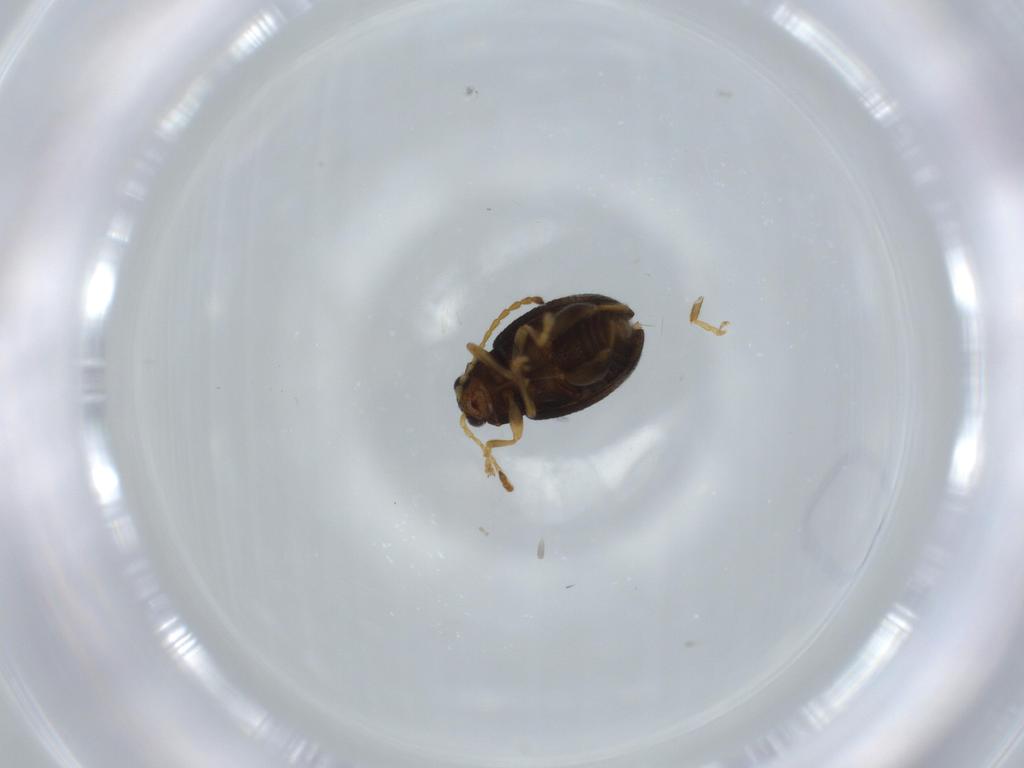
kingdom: Animalia
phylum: Arthropoda
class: Insecta
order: Coleoptera
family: Chrysomelidae
